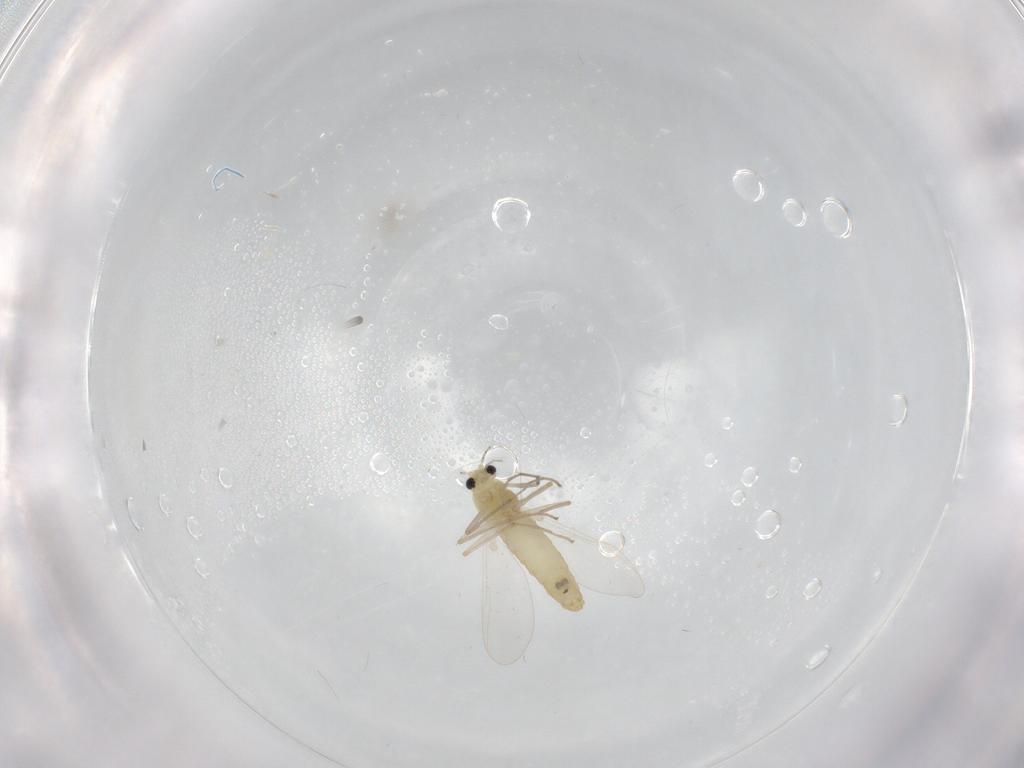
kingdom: Animalia
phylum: Arthropoda
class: Insecta
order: Diptera
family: Chironomidae
